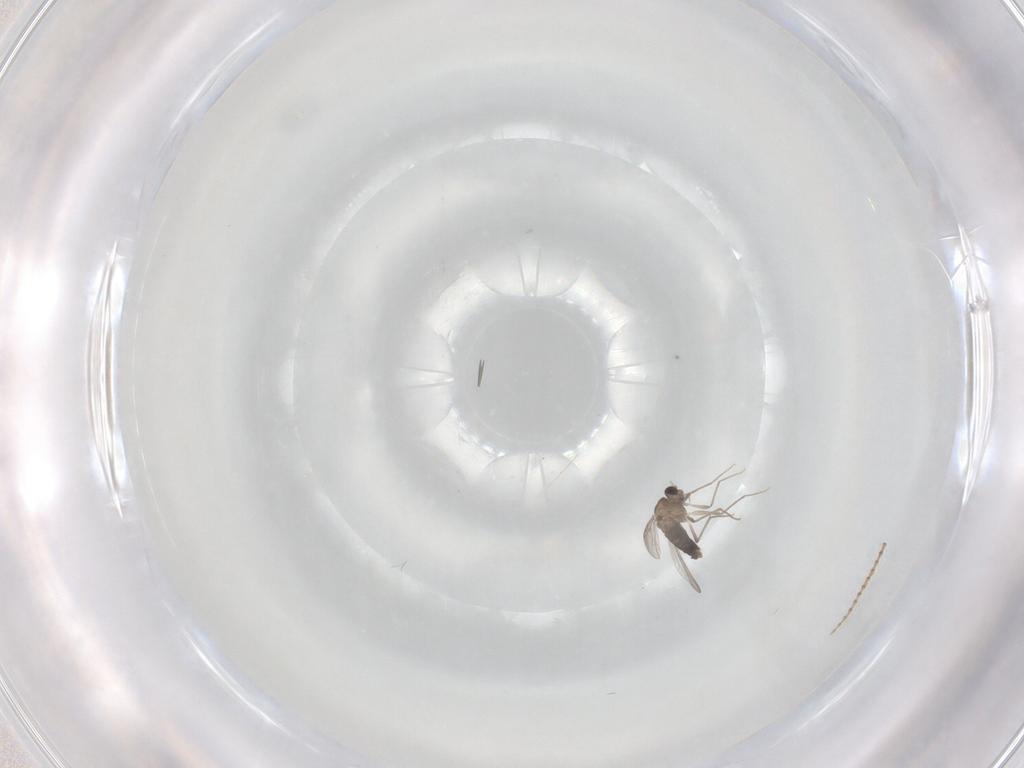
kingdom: Animalia
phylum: Arthropoda
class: Insecta
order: Diptera
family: Chironomidae
